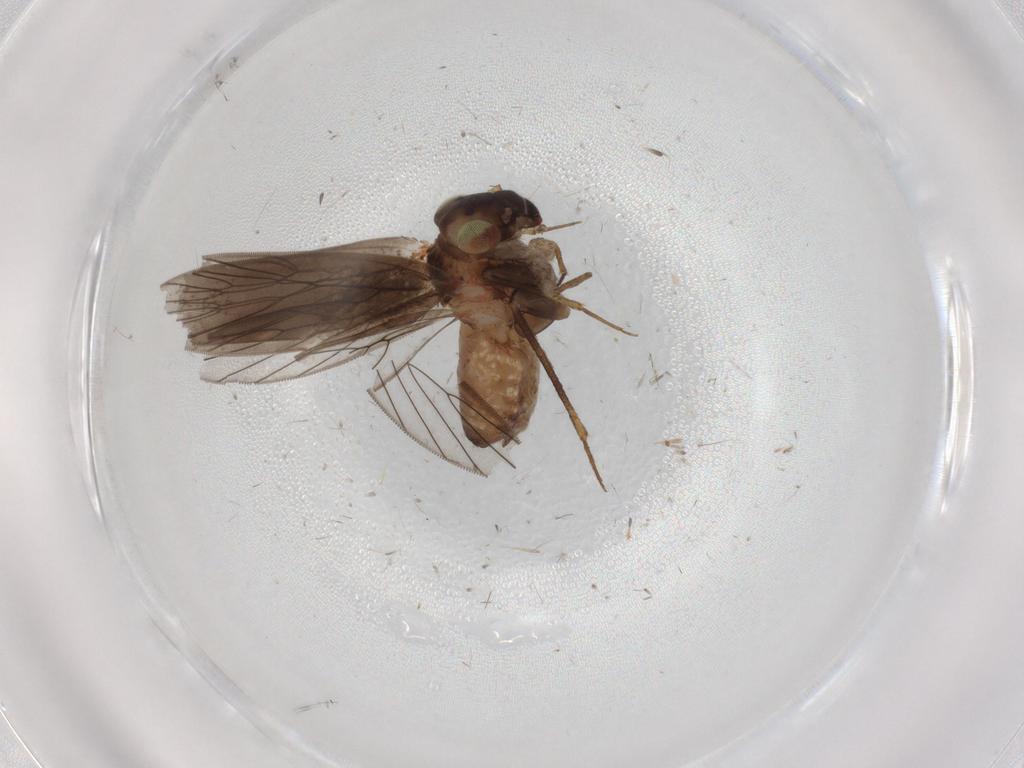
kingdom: Animalia
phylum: Arthropoda
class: Insecta
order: Psocodea
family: Lepidopsocidae
